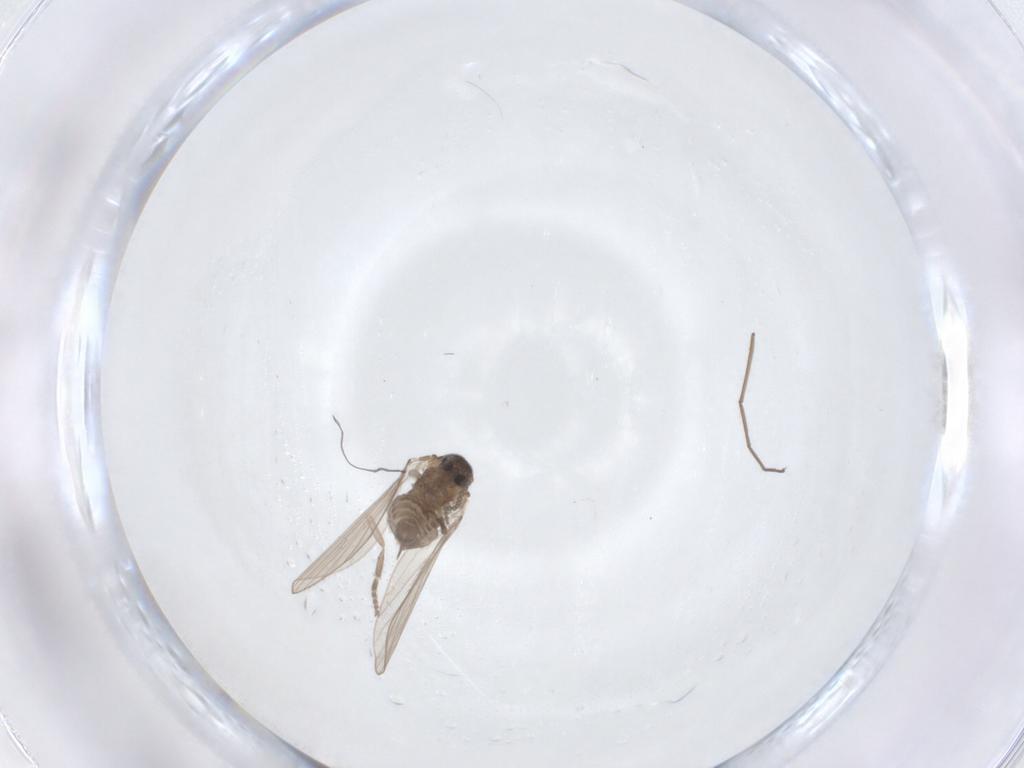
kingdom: Animalia
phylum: Arthropoda
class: Insecta
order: Diptera
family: Psychodidae
